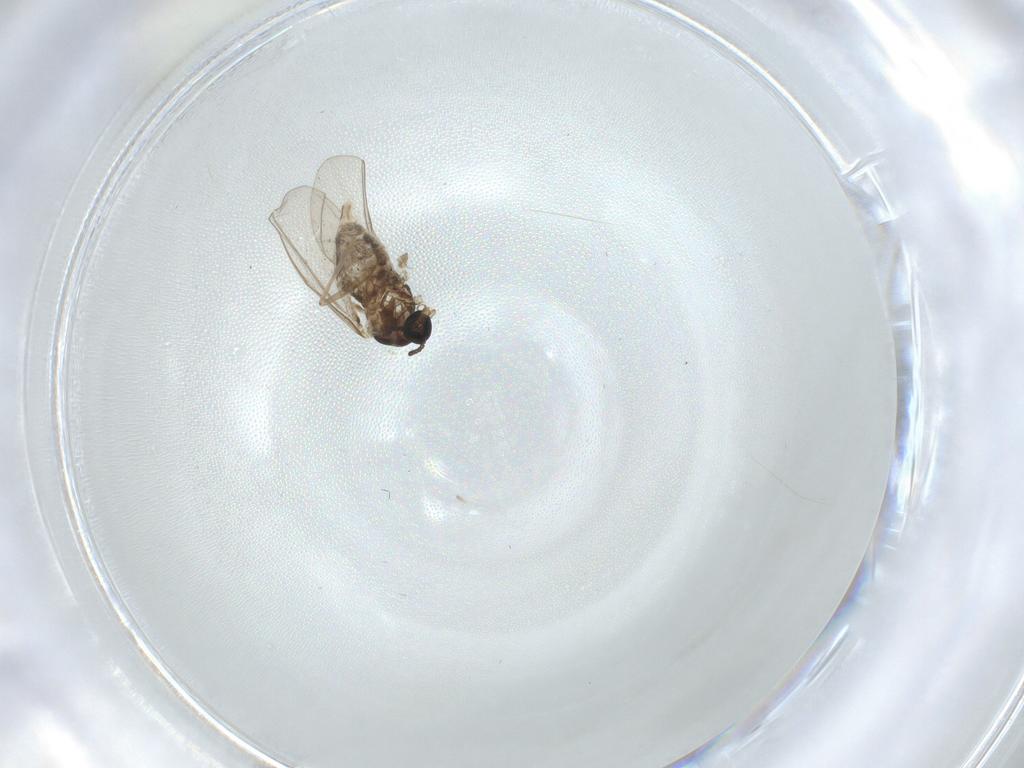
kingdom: Animalia
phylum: Arthropoda
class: Insecta
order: Diptera
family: Cecidomyiidae
